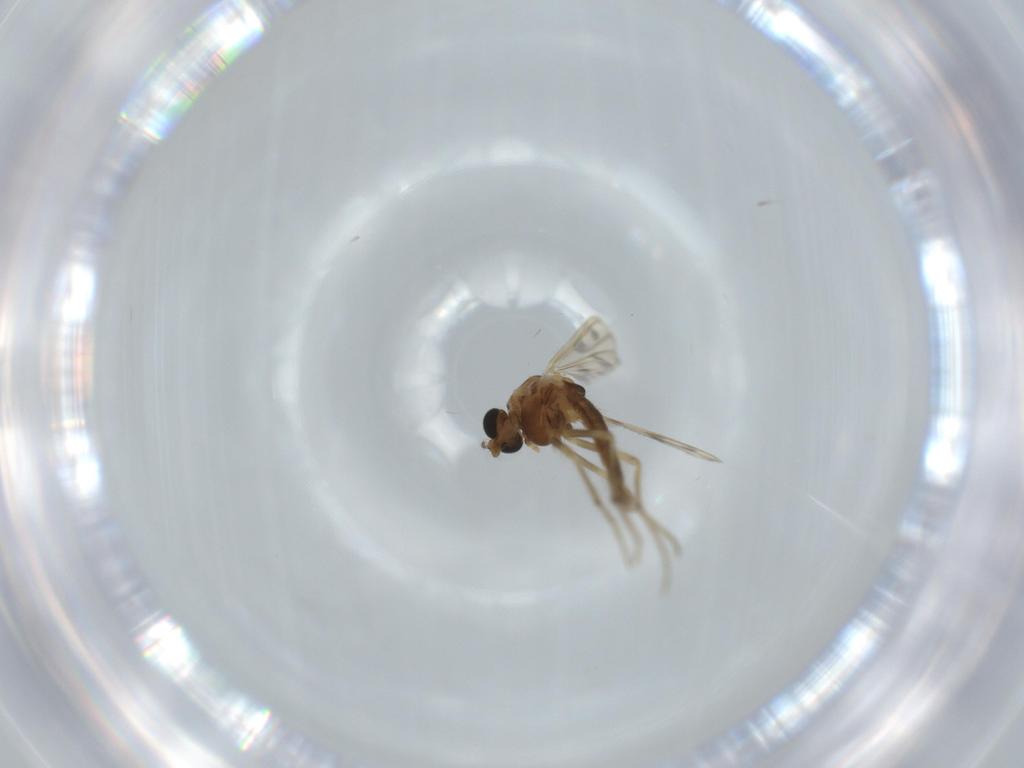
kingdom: Animalia
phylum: Arthropoda
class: Insecta
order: Diptera
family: Chironomidae
